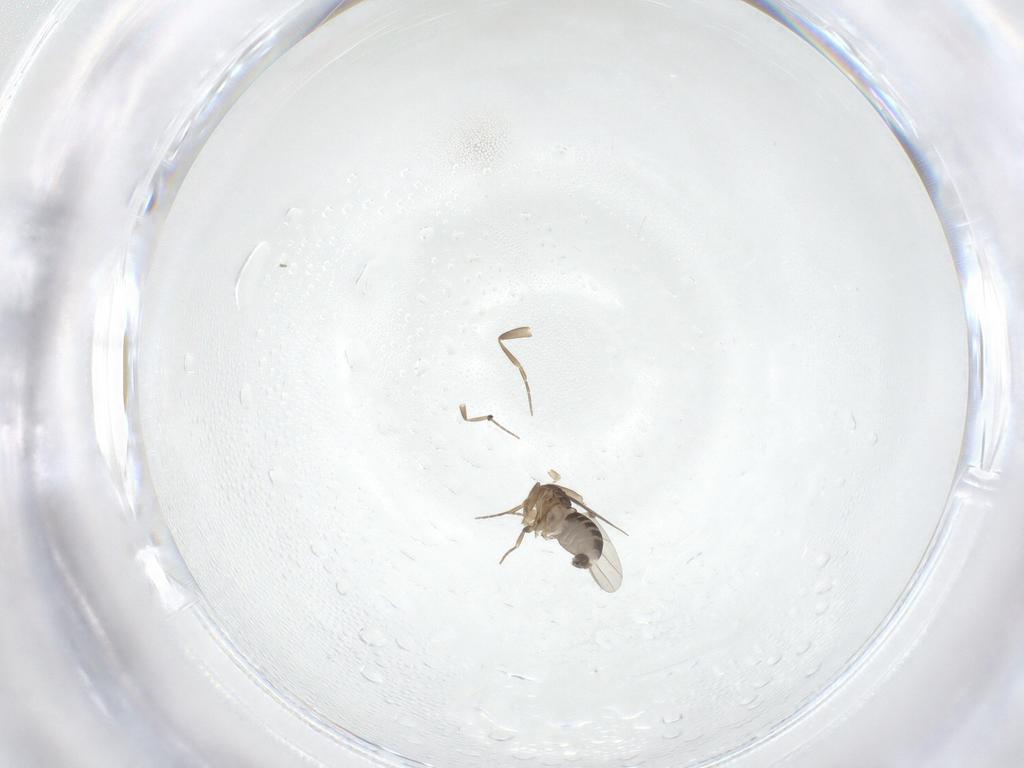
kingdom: Animalia
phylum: Arthropoda
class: Insecta
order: Diptera
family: Phoridae
